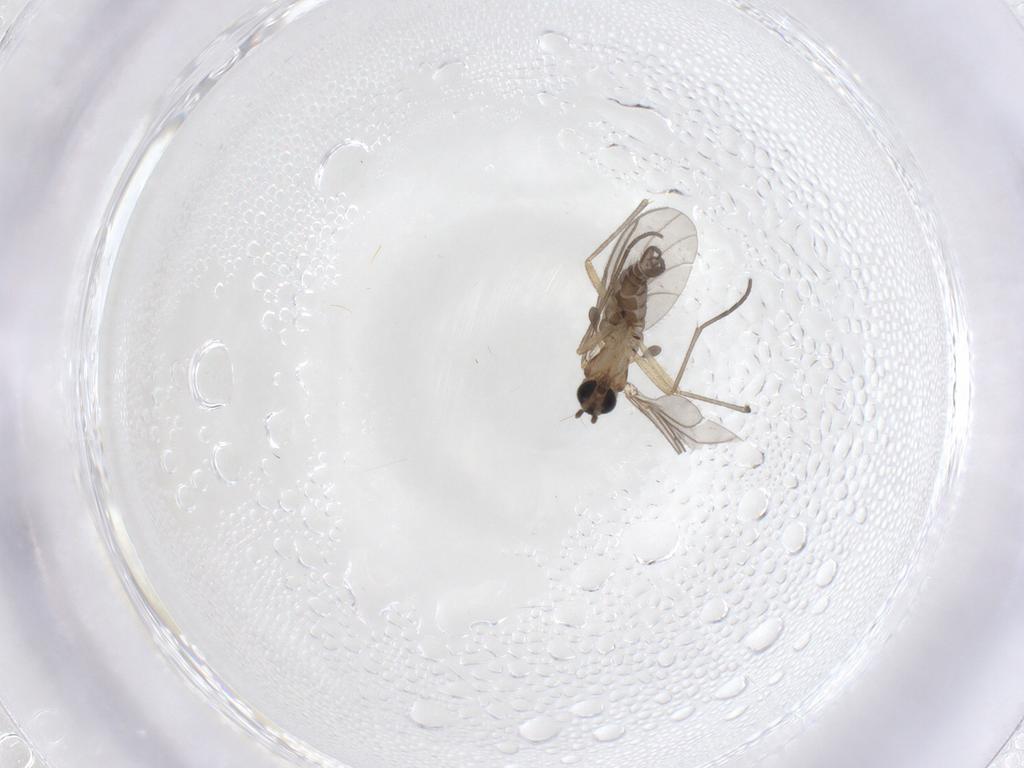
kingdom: Animalia
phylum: Arthropoda
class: Insecta
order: Diptera
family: Sciaridae
